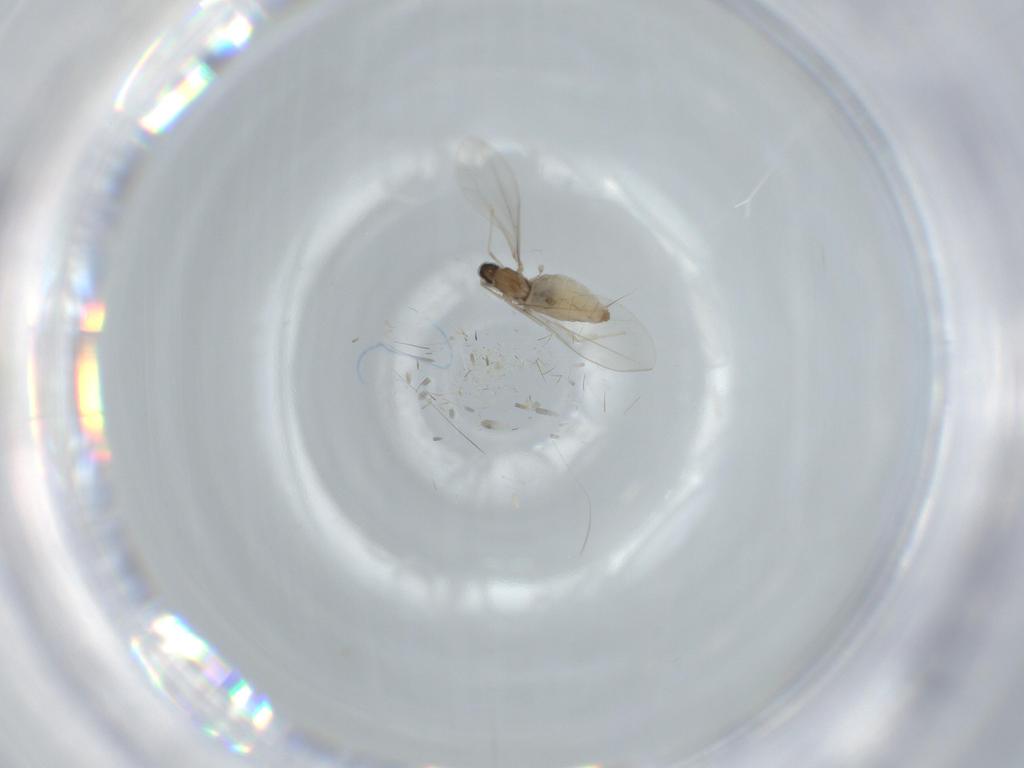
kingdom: Animalia
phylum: Arthropoda
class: Insecta
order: Diptera
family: Cecidomyiidae
